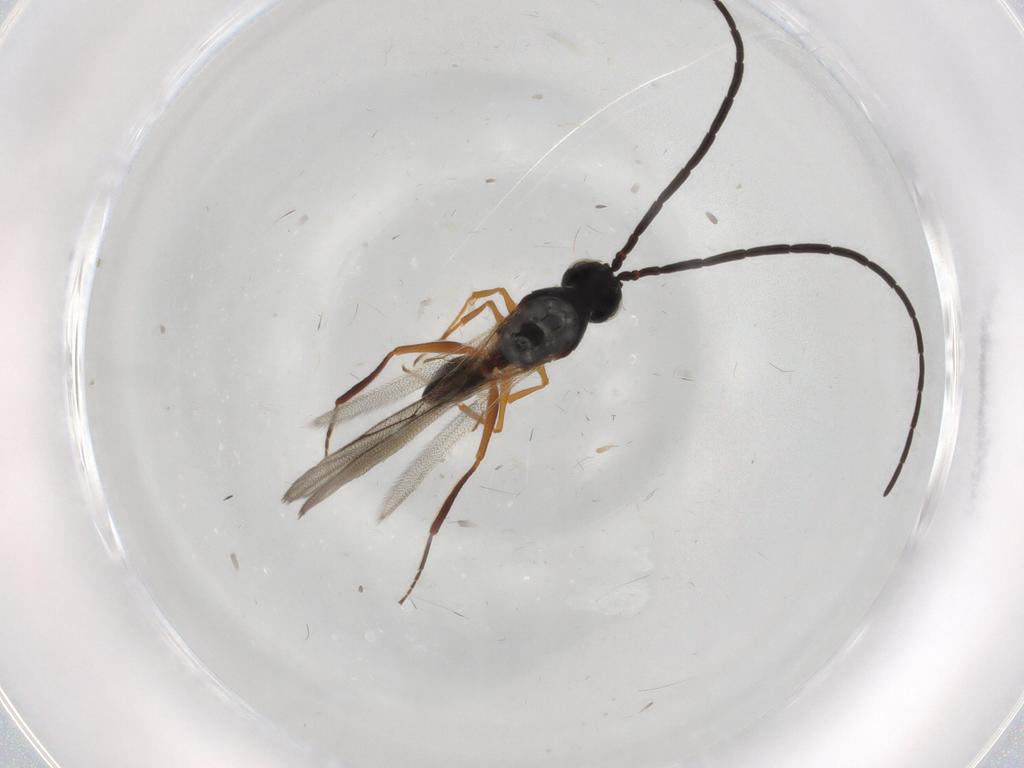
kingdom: Animalia
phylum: Arthropoda
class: Insecta
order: Hymenoptera
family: Figitidae
